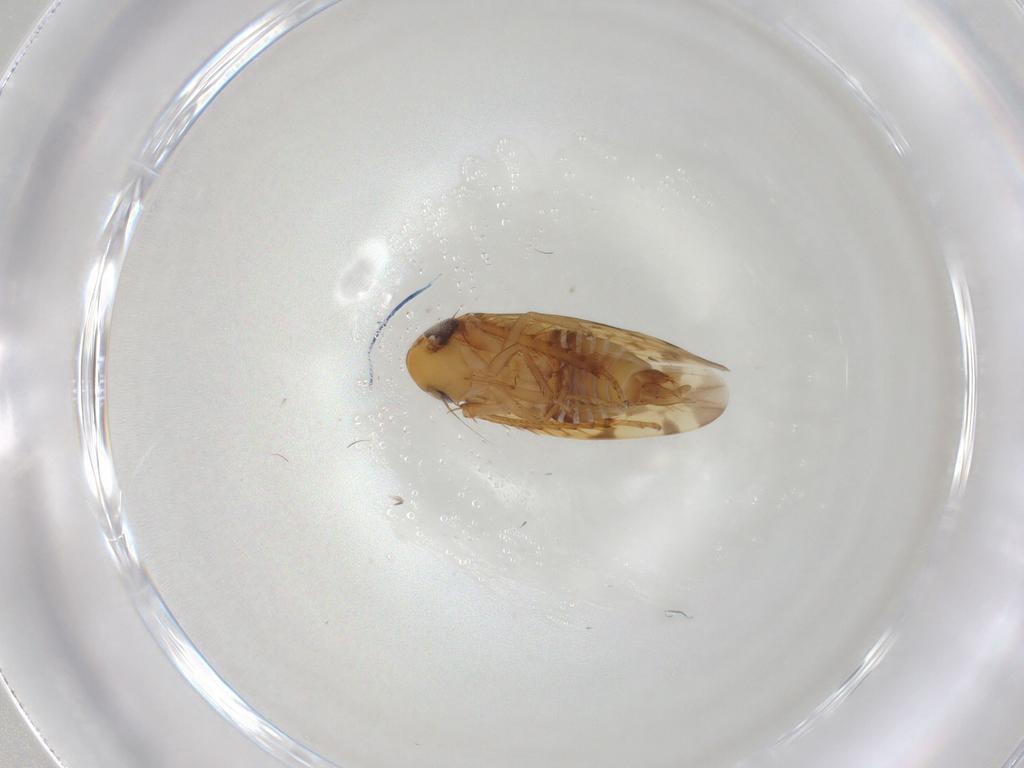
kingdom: Animalia
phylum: Arthropoda
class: Insecta
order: Hemiptera
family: Cicadellidae
